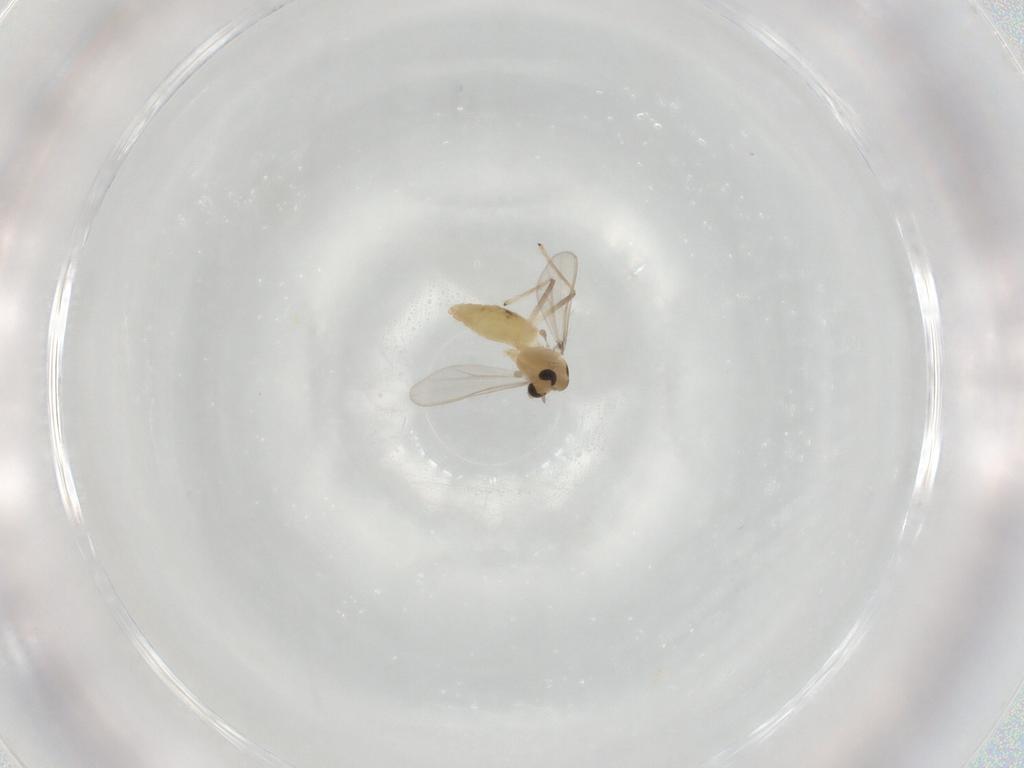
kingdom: Animalia
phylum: Arthropoda
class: Insecta
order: Diptera
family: Chironomidae
